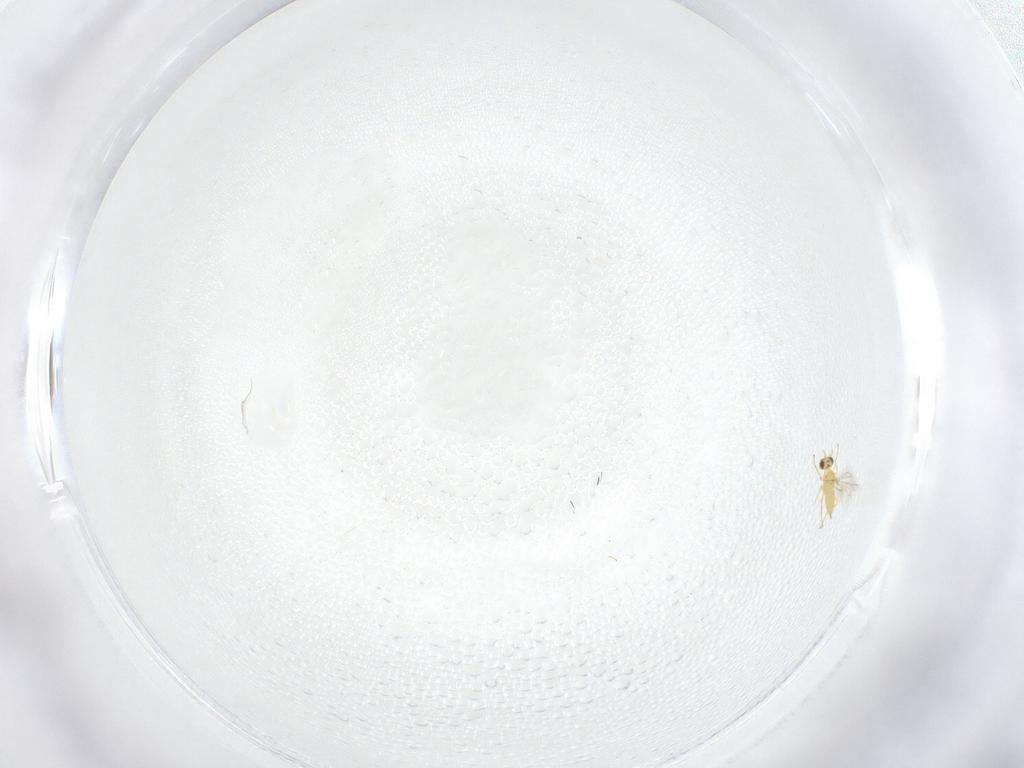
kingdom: Animalia
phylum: Arthropoda
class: Insecta
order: Hymenoptera
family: Mymaridae
